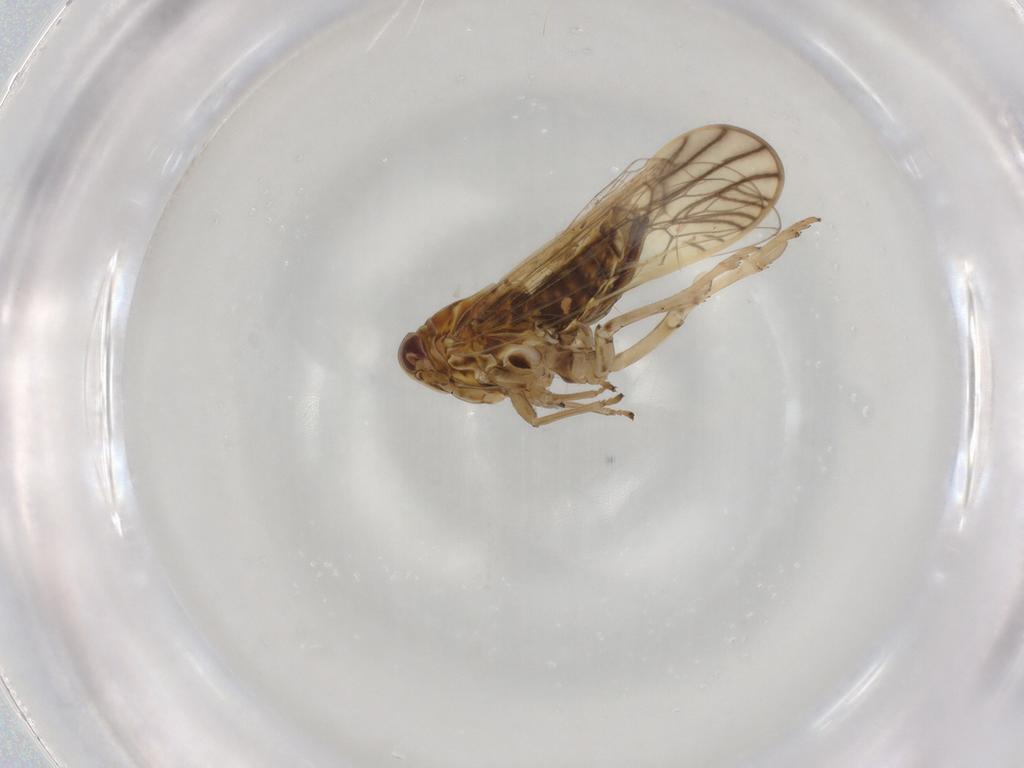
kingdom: Animalia
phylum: Arthropoda
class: Insecta
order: Hemiptera
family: Delphacidae
